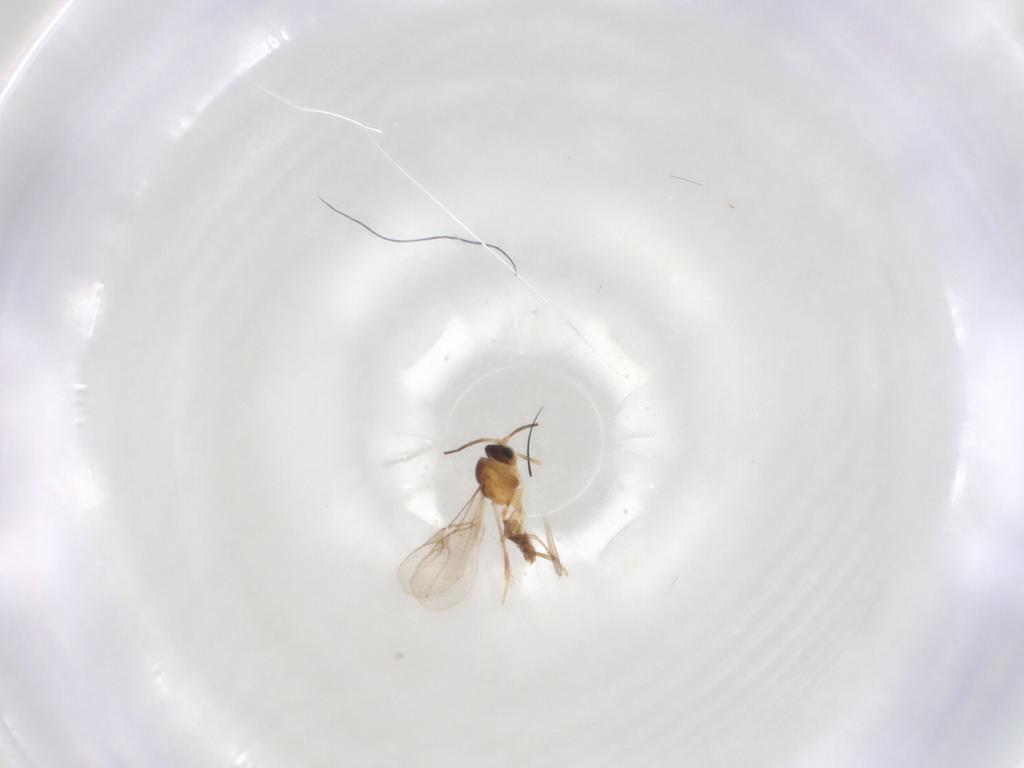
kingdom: Animalia
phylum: Arthropoda
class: Insecta
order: Hymenoptera
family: Braconidae
